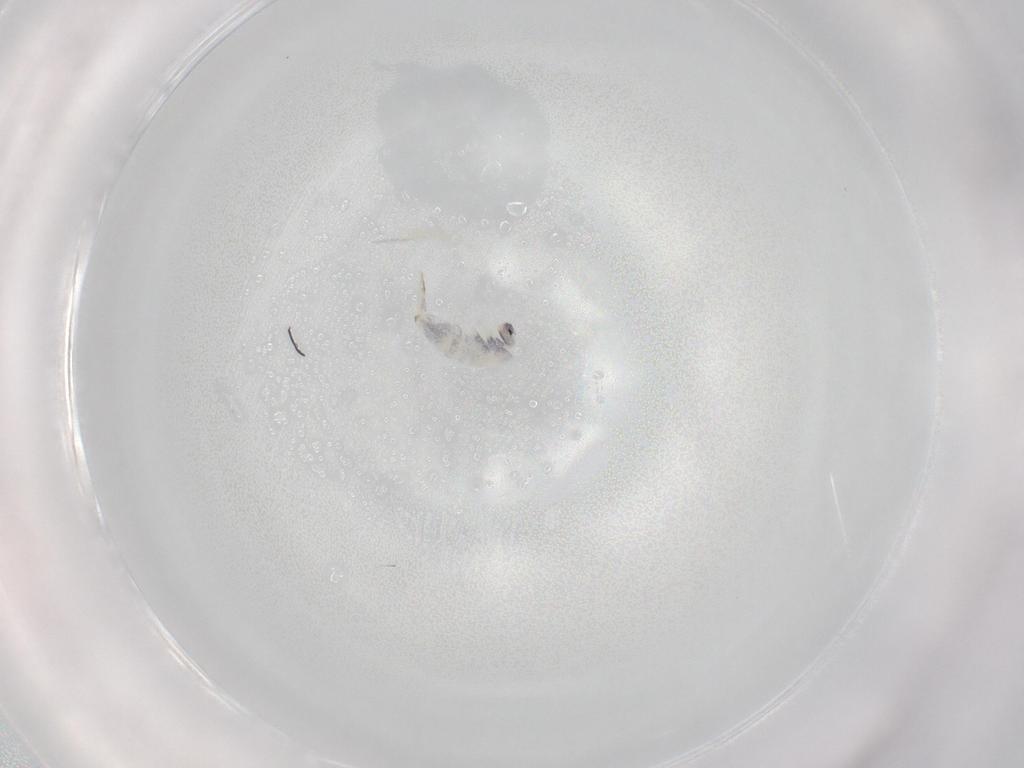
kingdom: Animalia
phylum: Arthropoda
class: Collembola
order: Entomobryomorpha
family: Entomobryidae
